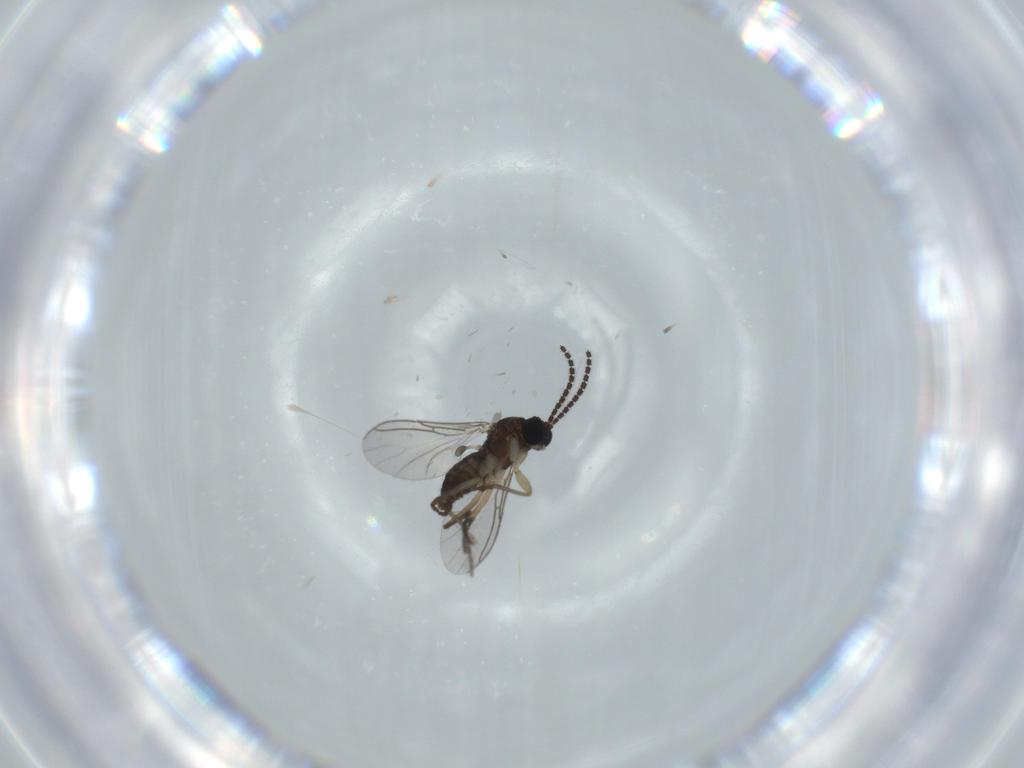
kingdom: Animalia
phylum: Arthropoda
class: Insecta
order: Diptera
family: Sciaridae
